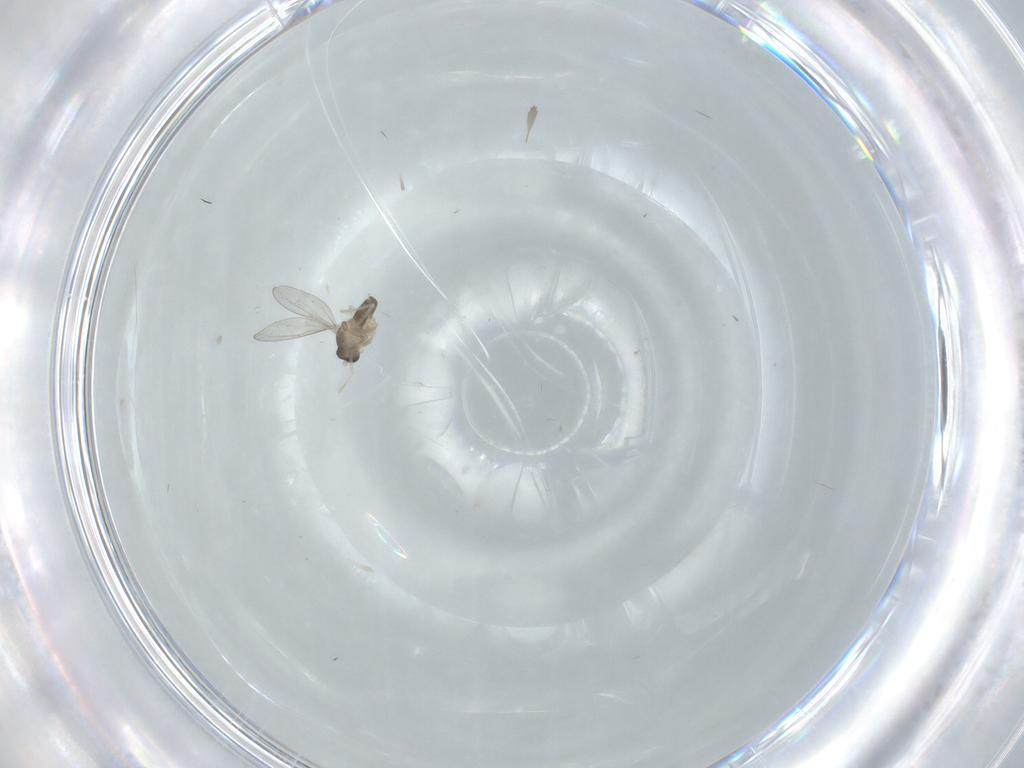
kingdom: Animalia
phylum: Arthropoda
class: Insecta
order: Diptera
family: Cecidomyiidae
